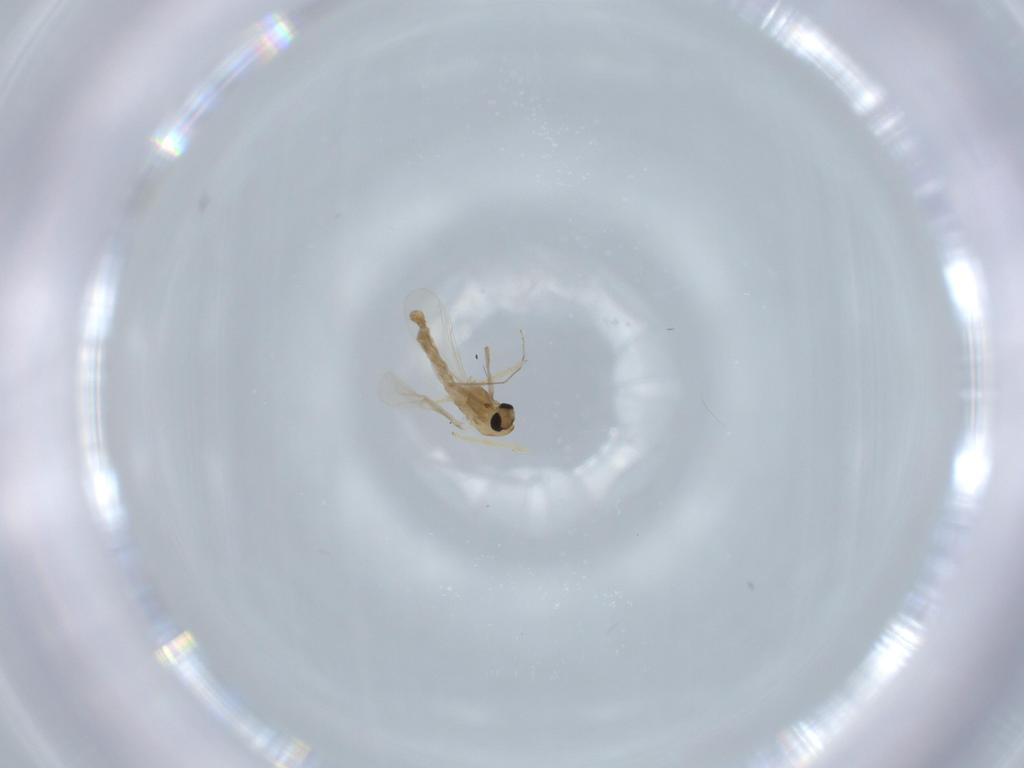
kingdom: Animalia
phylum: Arthropoda
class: Insecta
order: Diptera
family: Chironomidae
